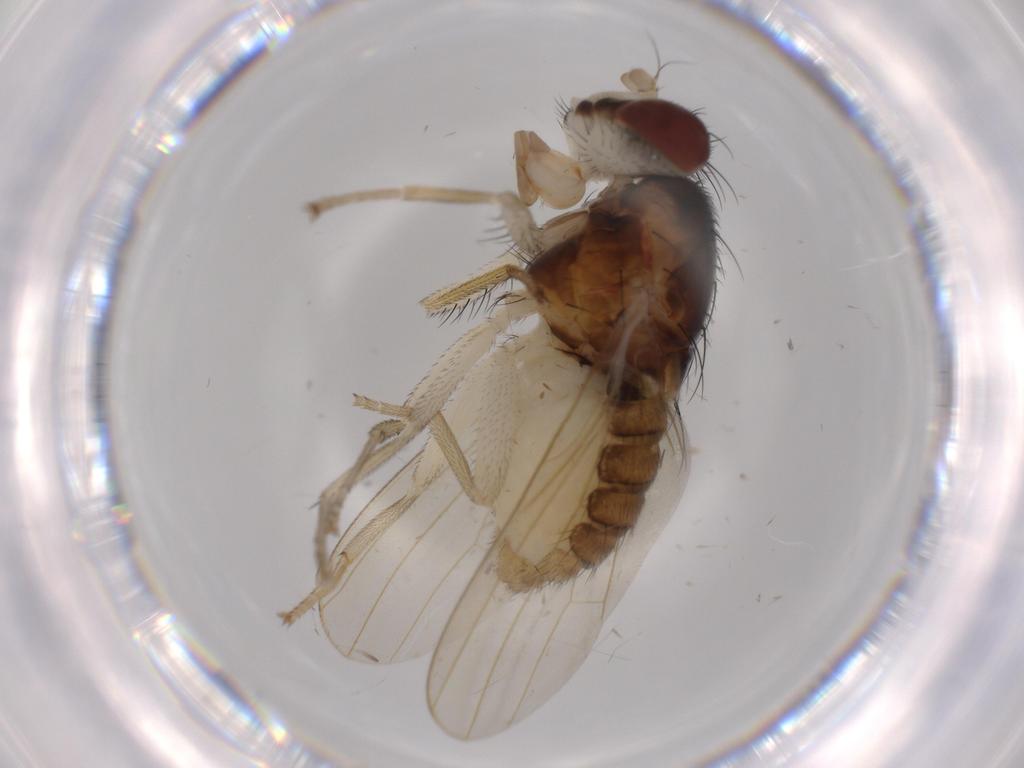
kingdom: Animalia
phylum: Arthropoda
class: Insecta
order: Diptera
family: Lauxaniidae
